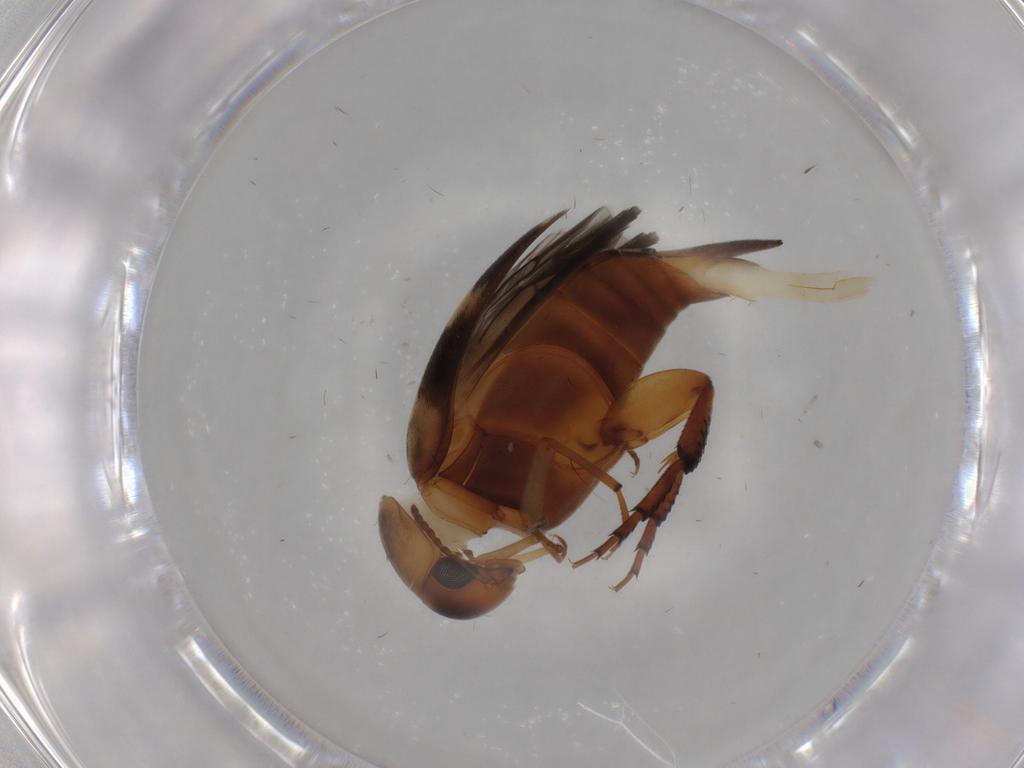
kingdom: Animalia
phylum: Arthropoda
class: Insecta
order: Coleoptera
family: Mordellidae
